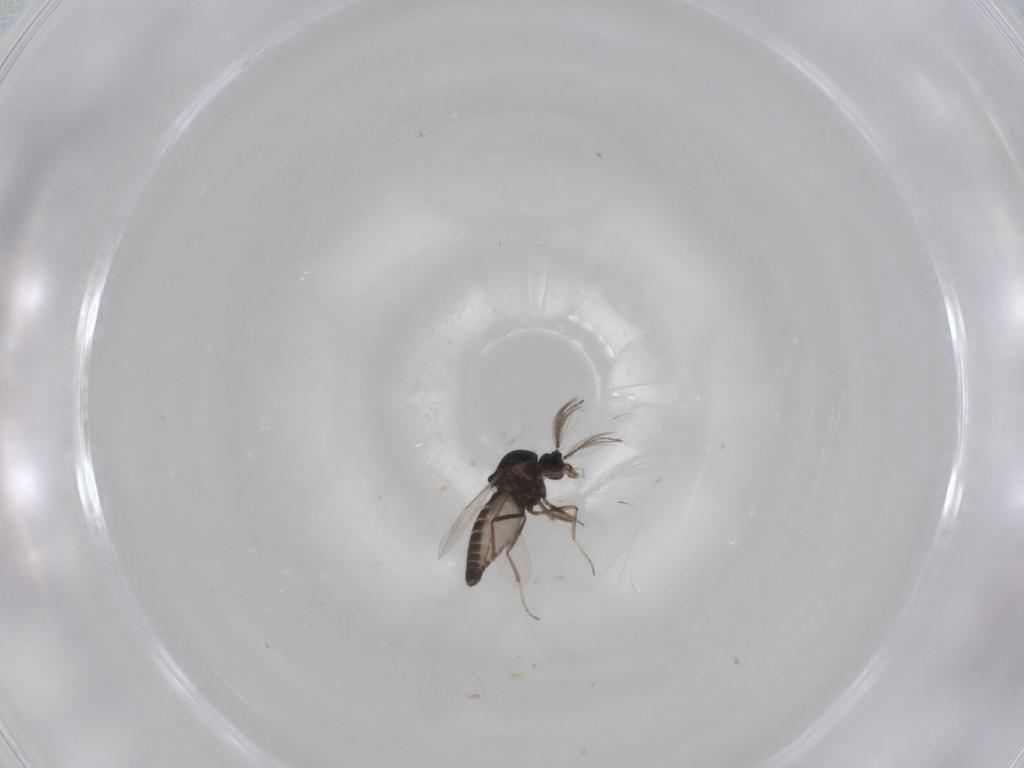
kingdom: Animalia
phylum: Arthropoda
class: Insecta
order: Diptera
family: Ceratopogonidae
